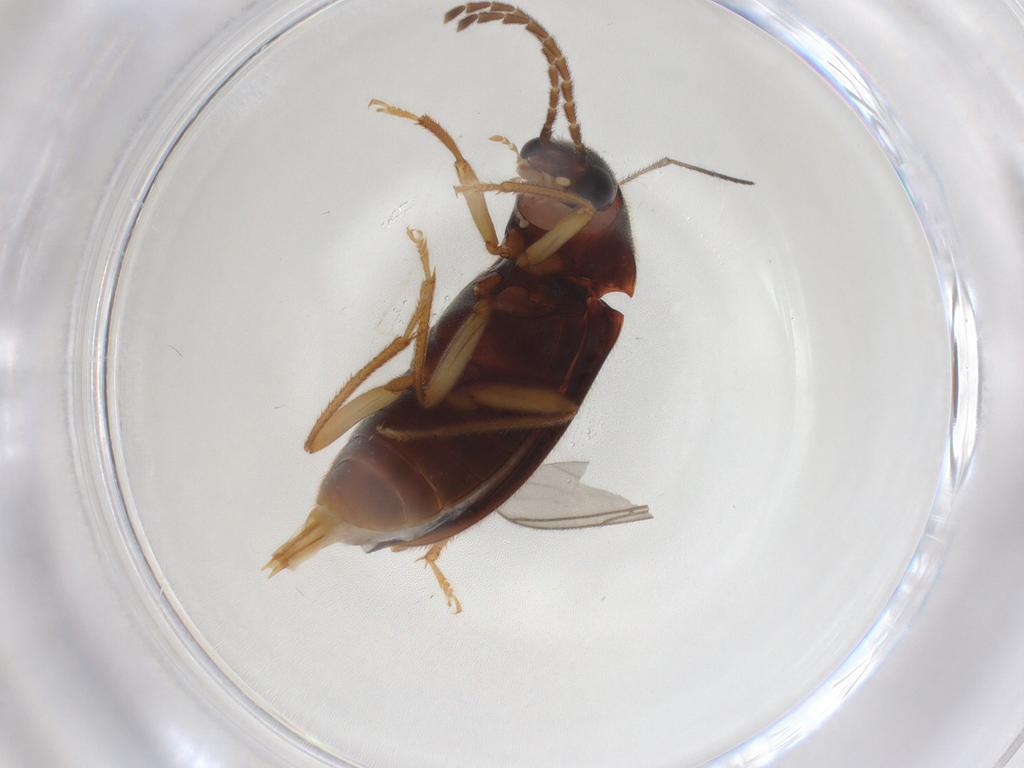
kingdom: Animalia
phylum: Arthropoda
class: Insecta
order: Coleoptera
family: Ptilodactylidae
